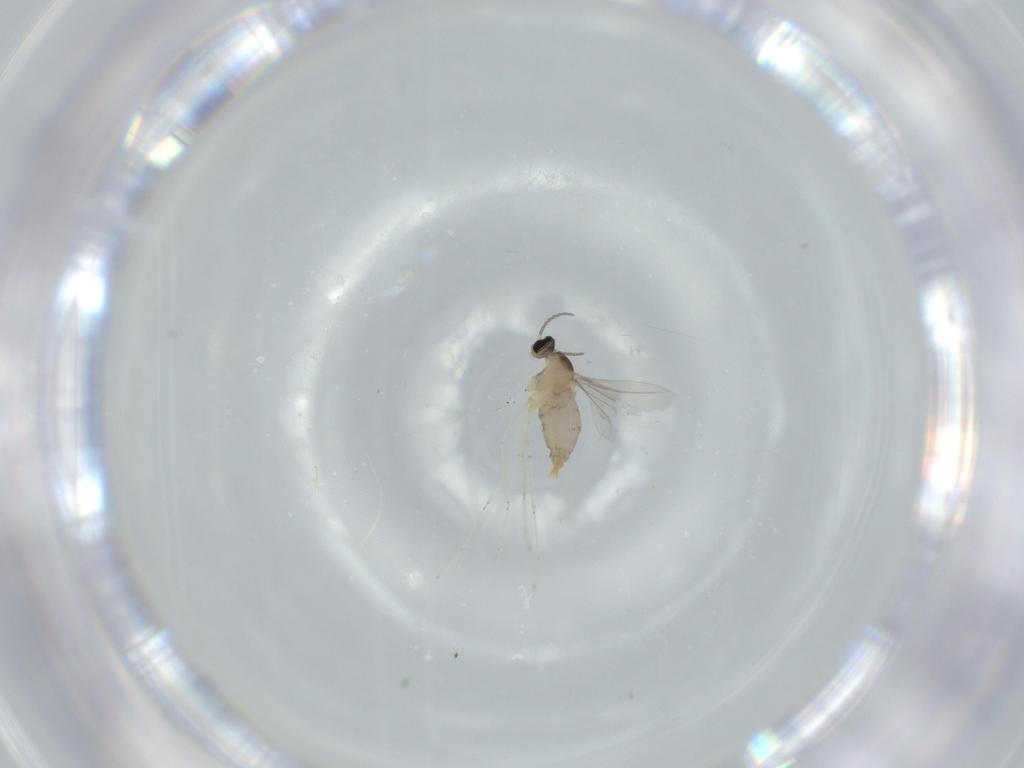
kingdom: Animalia
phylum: Arthropoda
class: Insecta
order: Diptera
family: Cecidomyiidae
